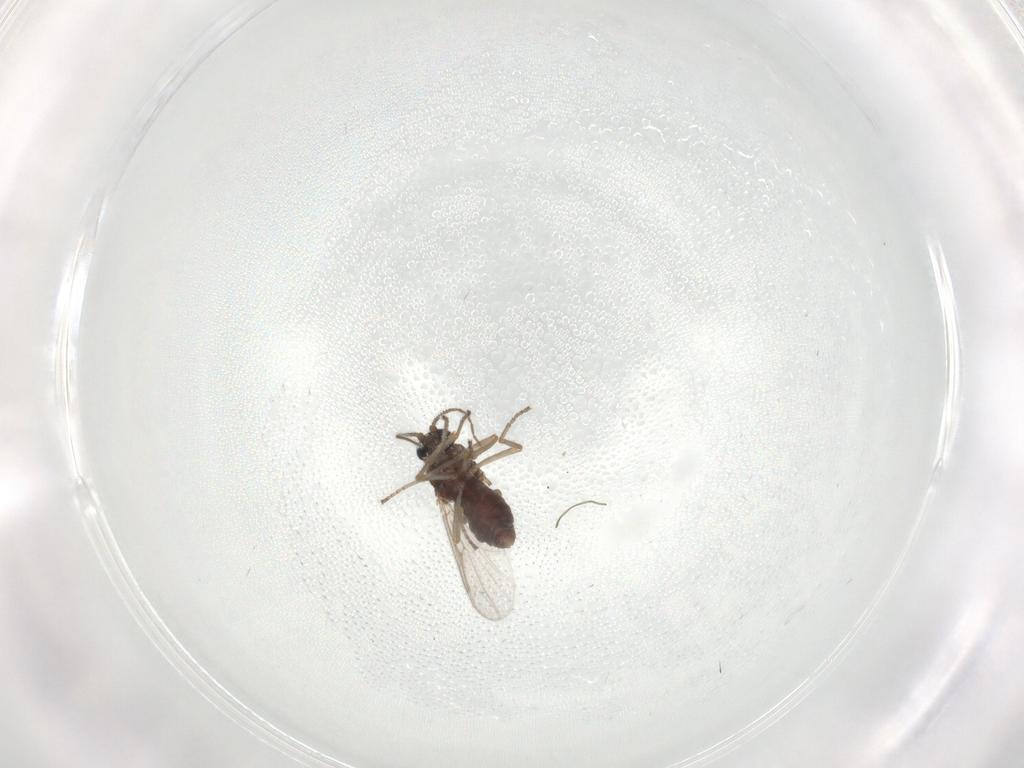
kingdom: Animalia
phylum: Arthropoda
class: Insecta
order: Diptera
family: Ceratopogonidae
